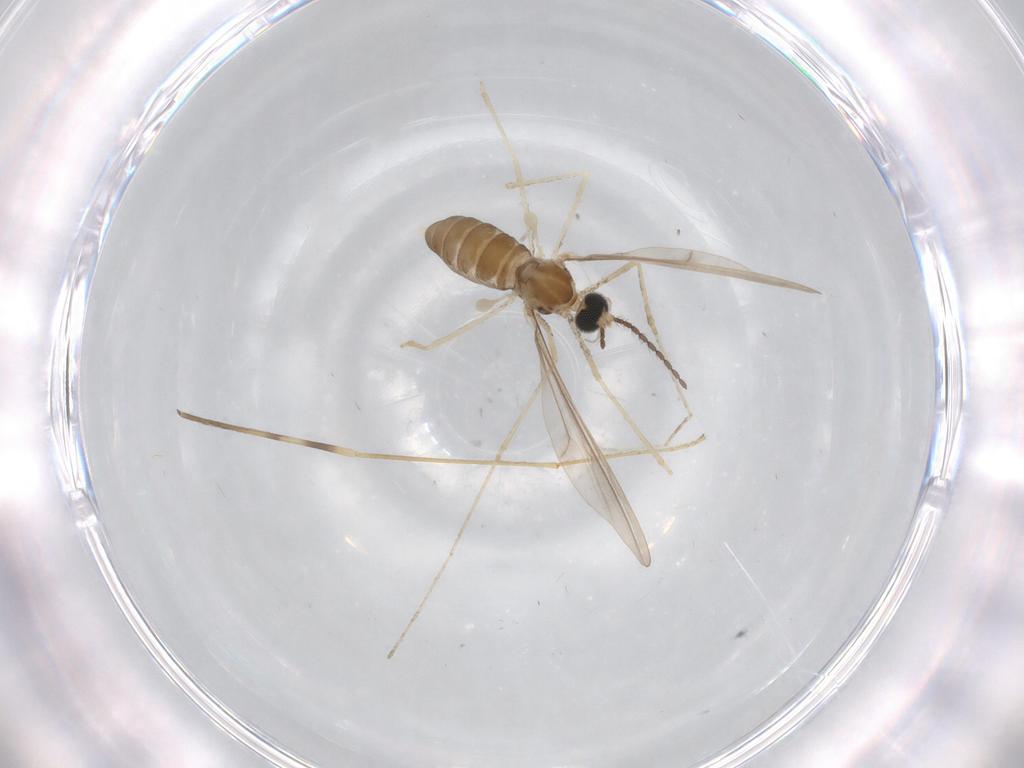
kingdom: Animalia
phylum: Arthropoda
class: Insecta
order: Diptera
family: Cecidomyiidae
